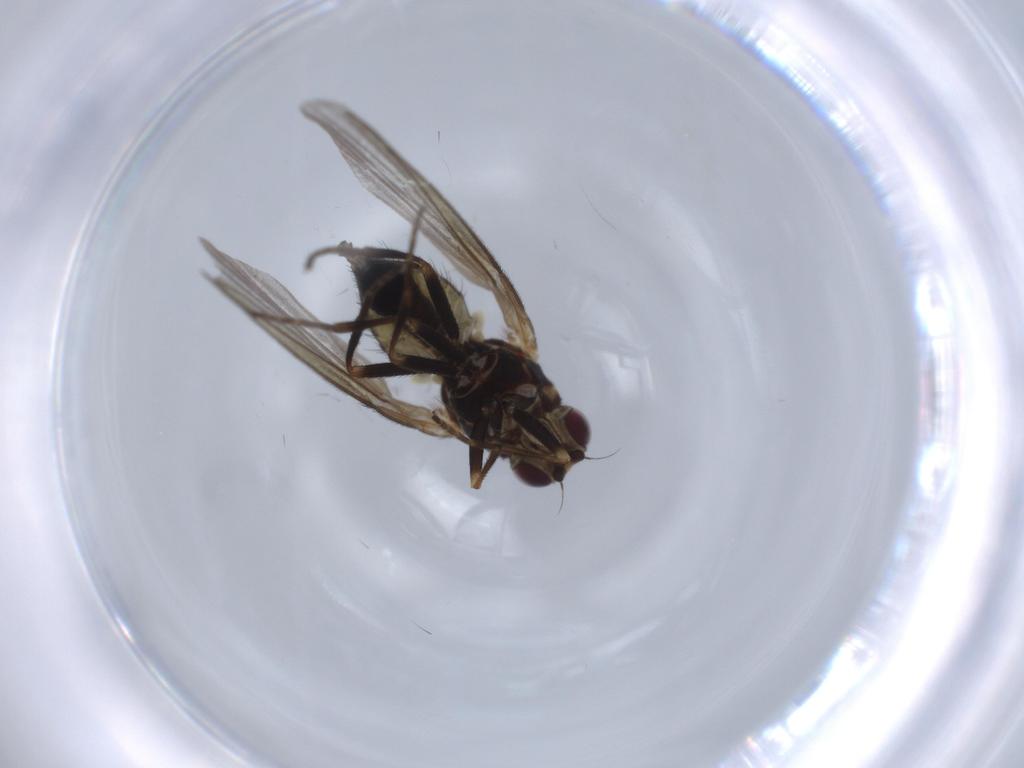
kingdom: Animalia
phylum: Arthropoda
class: Insecta
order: Diptera
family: Agromyzidae
